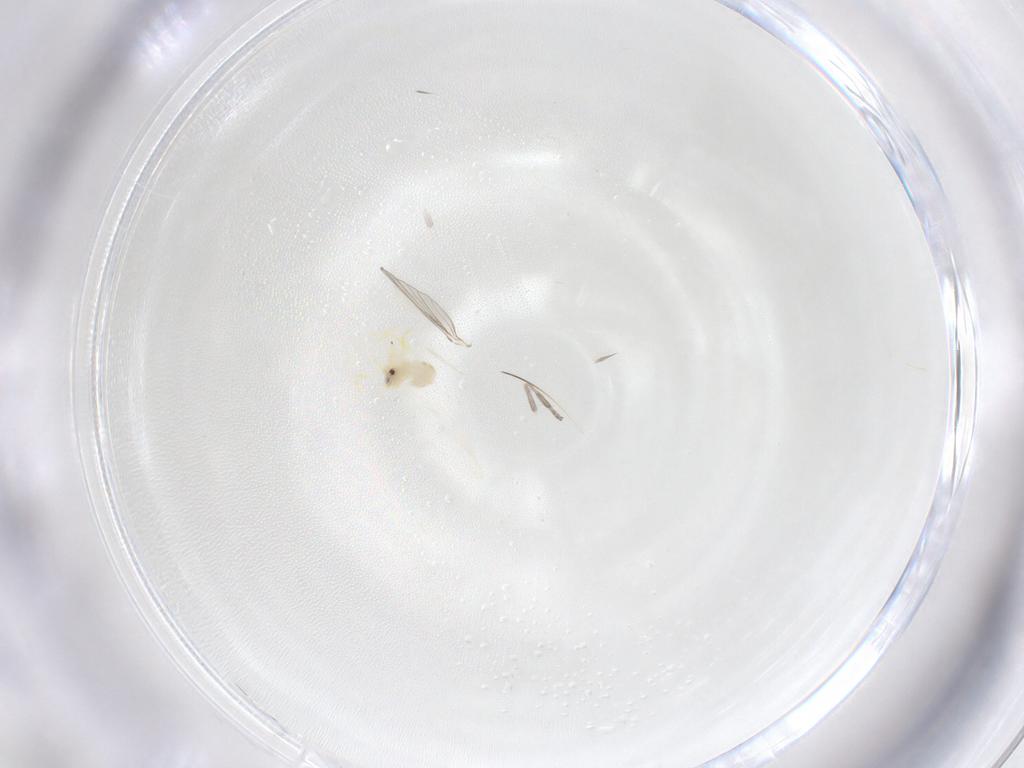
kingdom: Animalia
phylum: Arthropoda
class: Insecta
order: Hemiptera
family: Aleyrodidae
